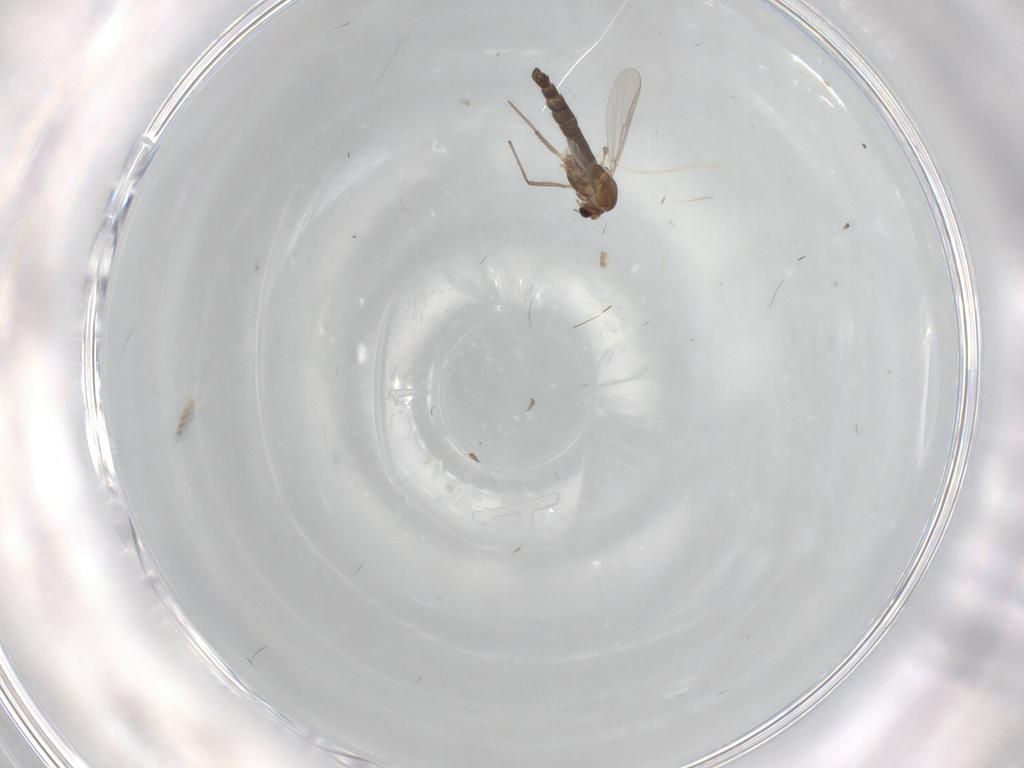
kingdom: Animalia
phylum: Arthropoda
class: Insecta
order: Diptera
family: Chironomidae
